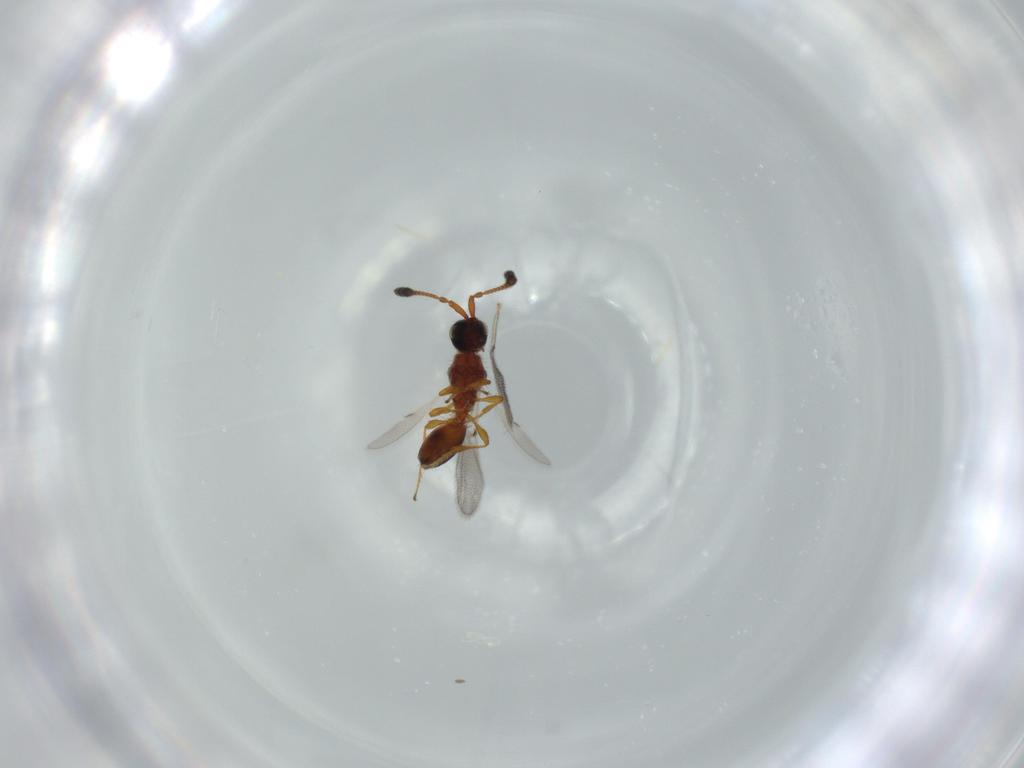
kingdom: Animalia
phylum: Arthropoda
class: Insecta
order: Hymenoptera
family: Diapriidae
